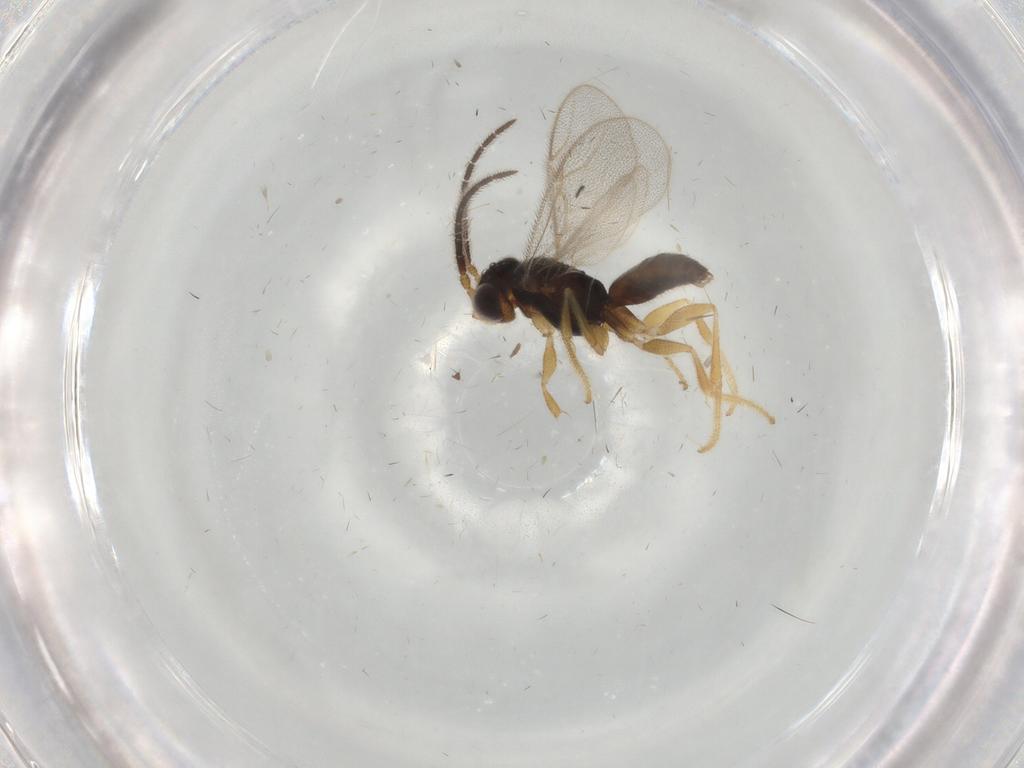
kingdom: Animalia
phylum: Arthropoda
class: Insecta
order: Hymenoptera
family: Dryinidae
